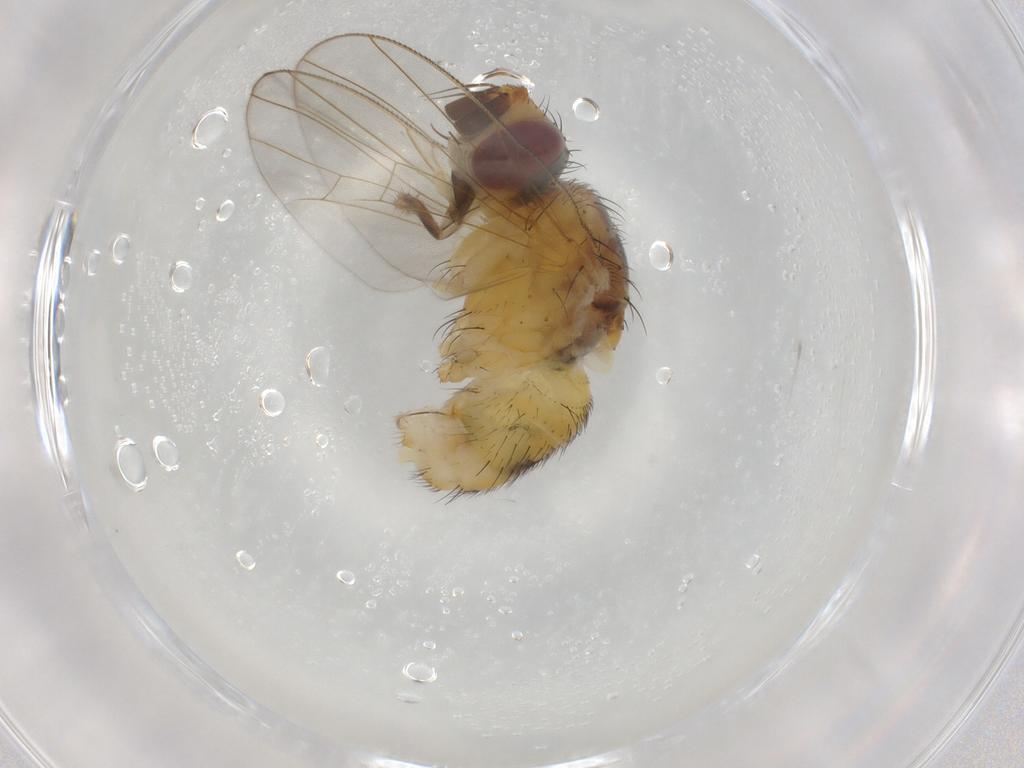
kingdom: Animalia
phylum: Arthropoda
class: Insecta
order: Diptera
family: Muscidae
